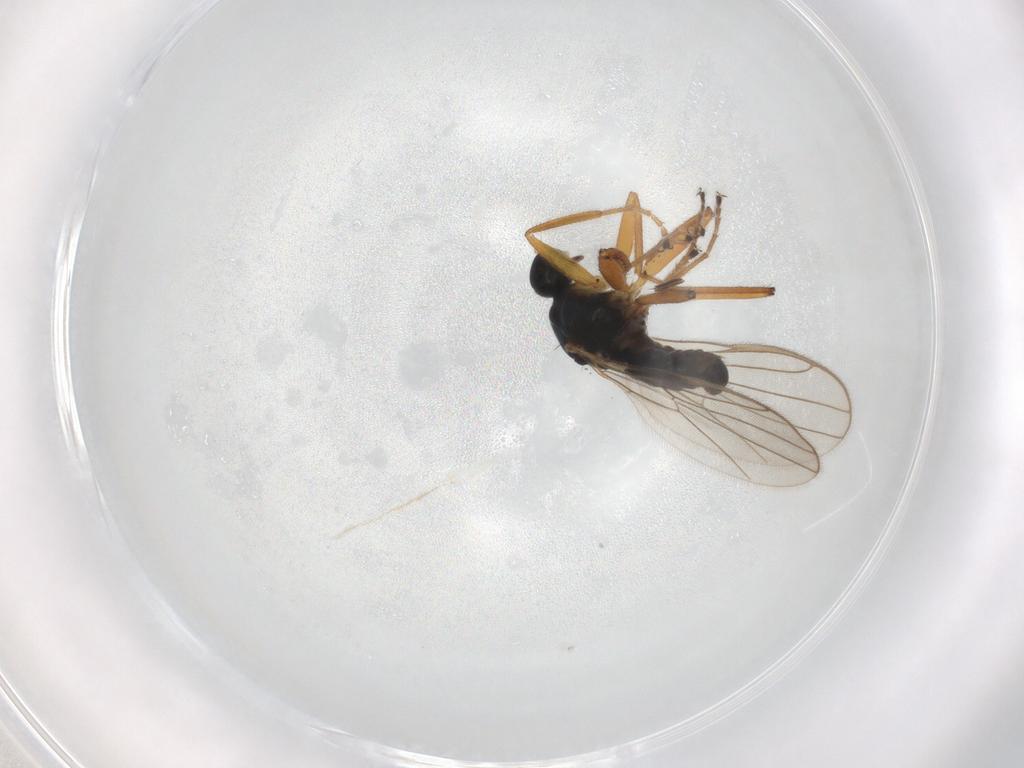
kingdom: Animalia
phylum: Arthropoda
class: Insecta
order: Diptera
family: Hybotidae
